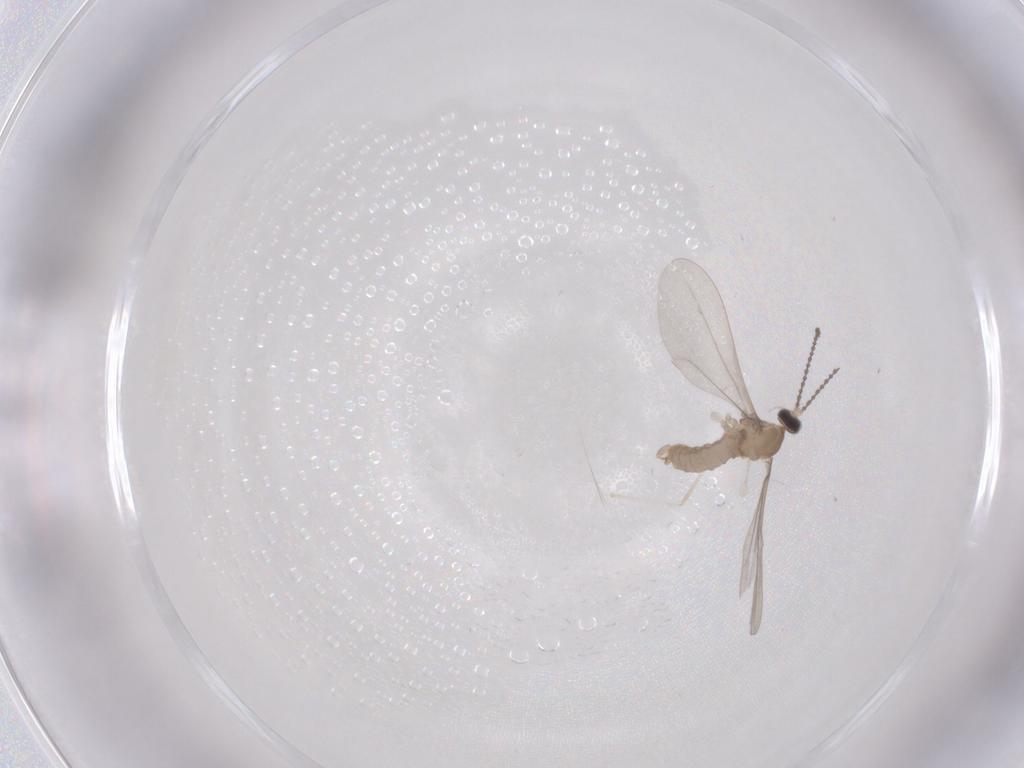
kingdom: Animalia
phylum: Arthropoda
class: Insecta
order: Diptera
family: Cecidomyiidae
